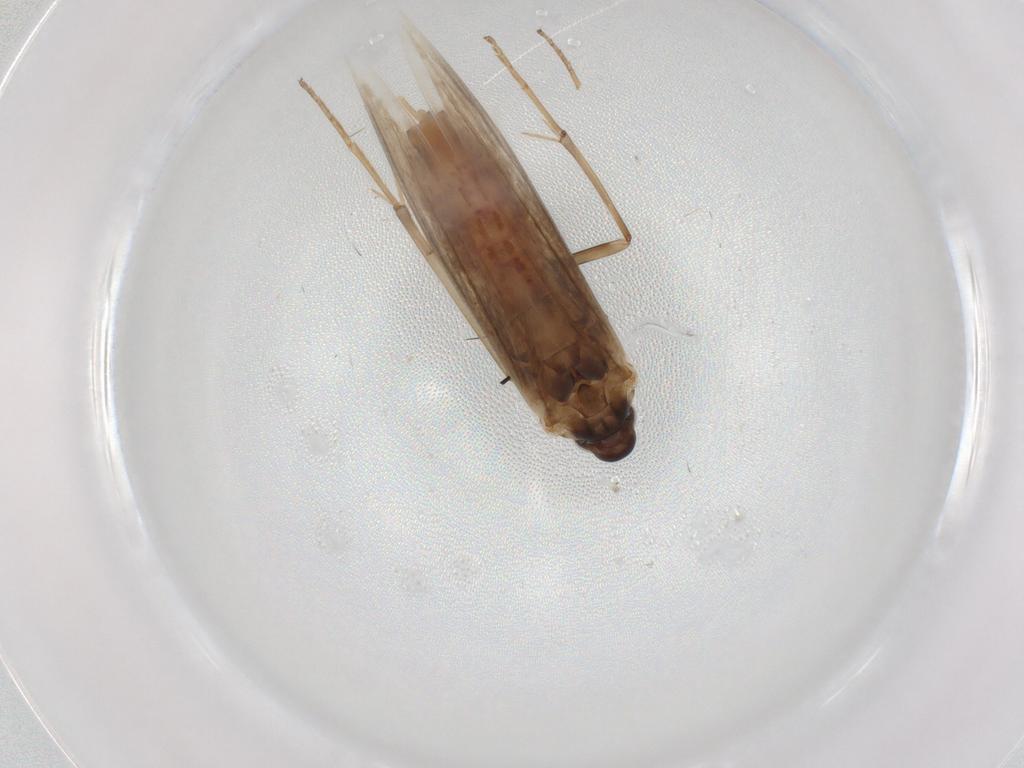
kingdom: Animalia
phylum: Arthropoda
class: Insecta
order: Lepidoptera
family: Coleophoridae
